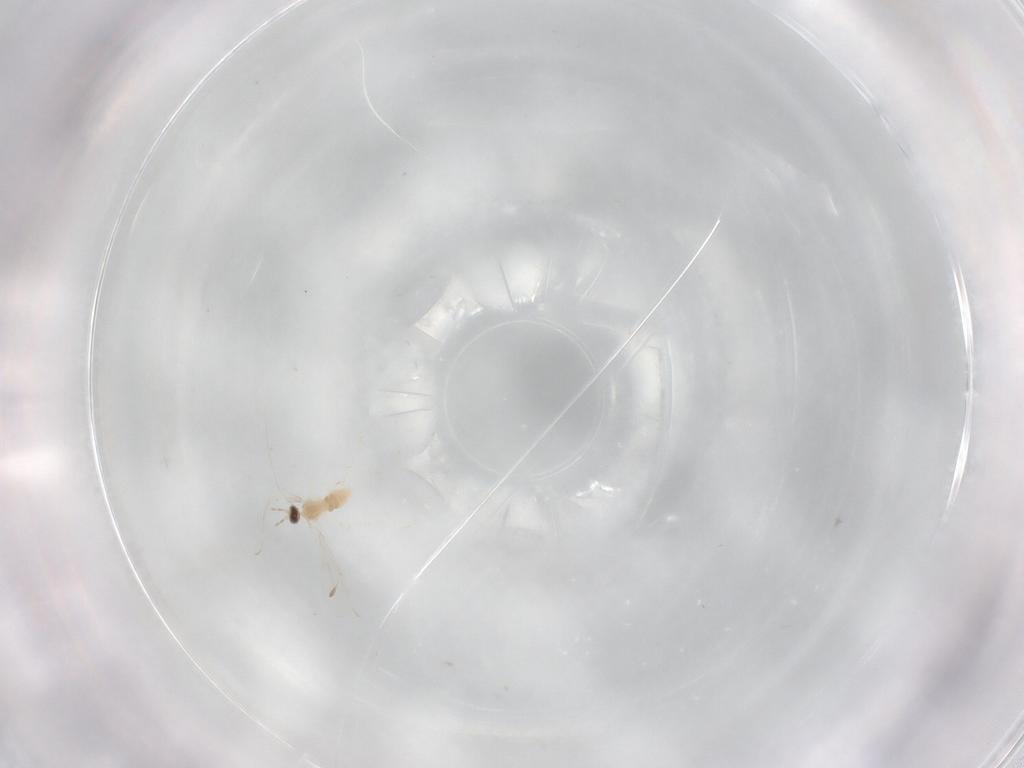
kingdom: Animalia
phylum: Arthropoda
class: Insecta
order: Diptera
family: Cecidomyiidae
